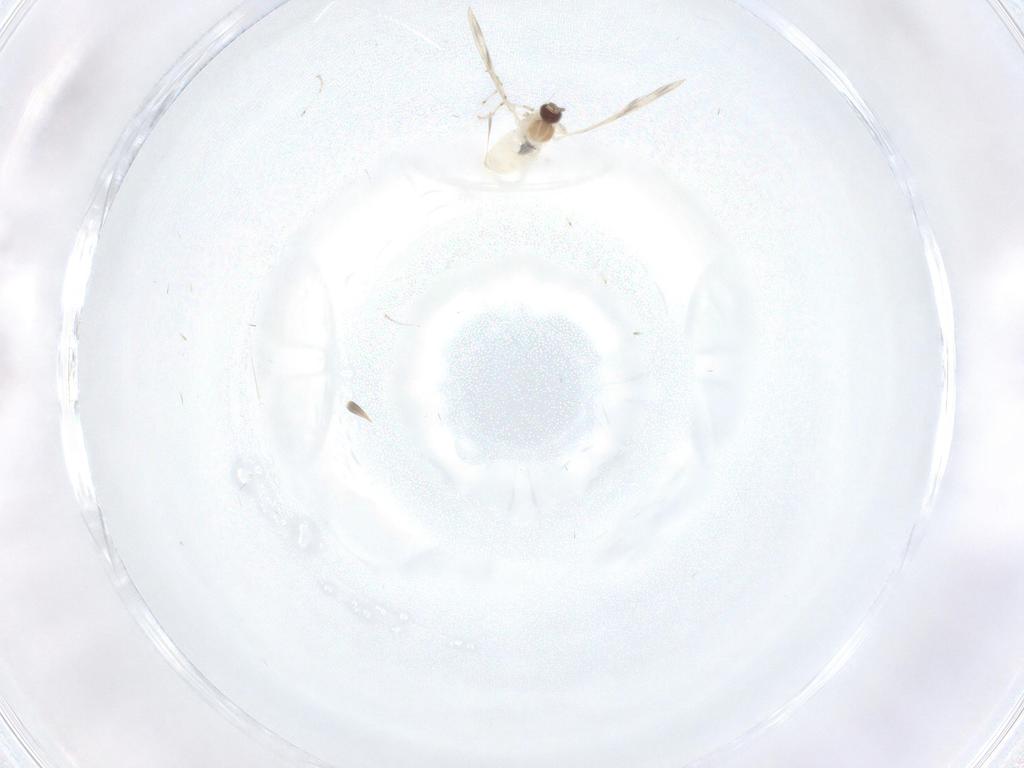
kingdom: Animalia
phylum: Arthropoda
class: Insecta
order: Diptera
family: Cecidomyiidae
